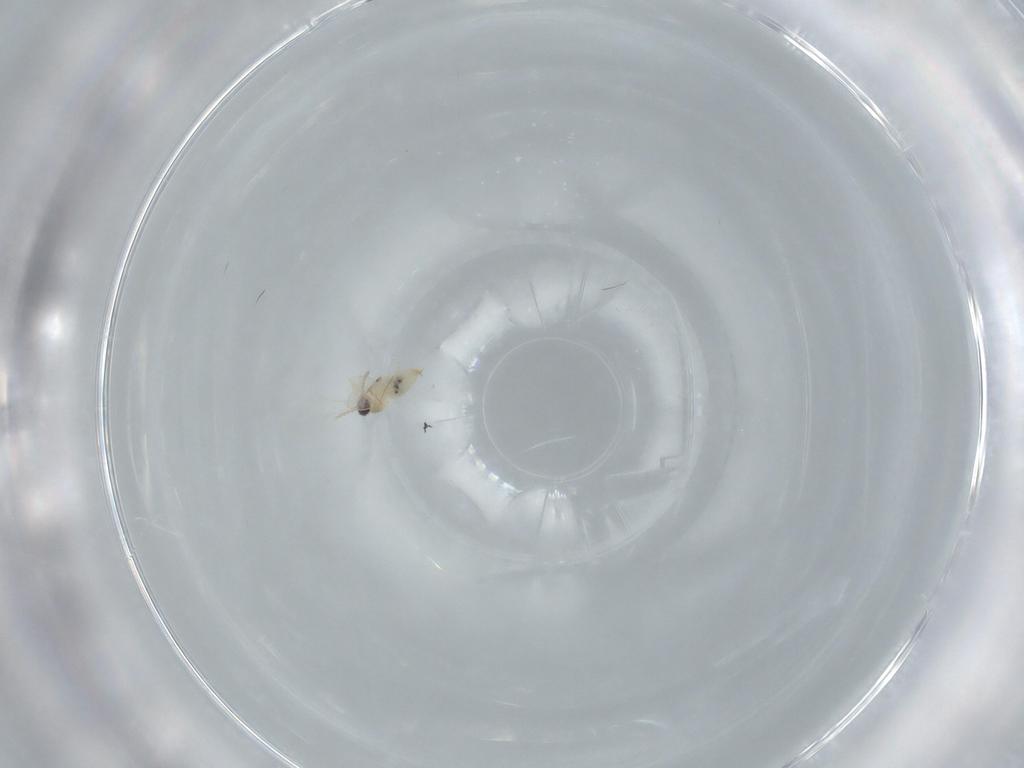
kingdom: Animalia
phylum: Arthropoda
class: Insecta
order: Diptera
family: Cecidomyiidae
